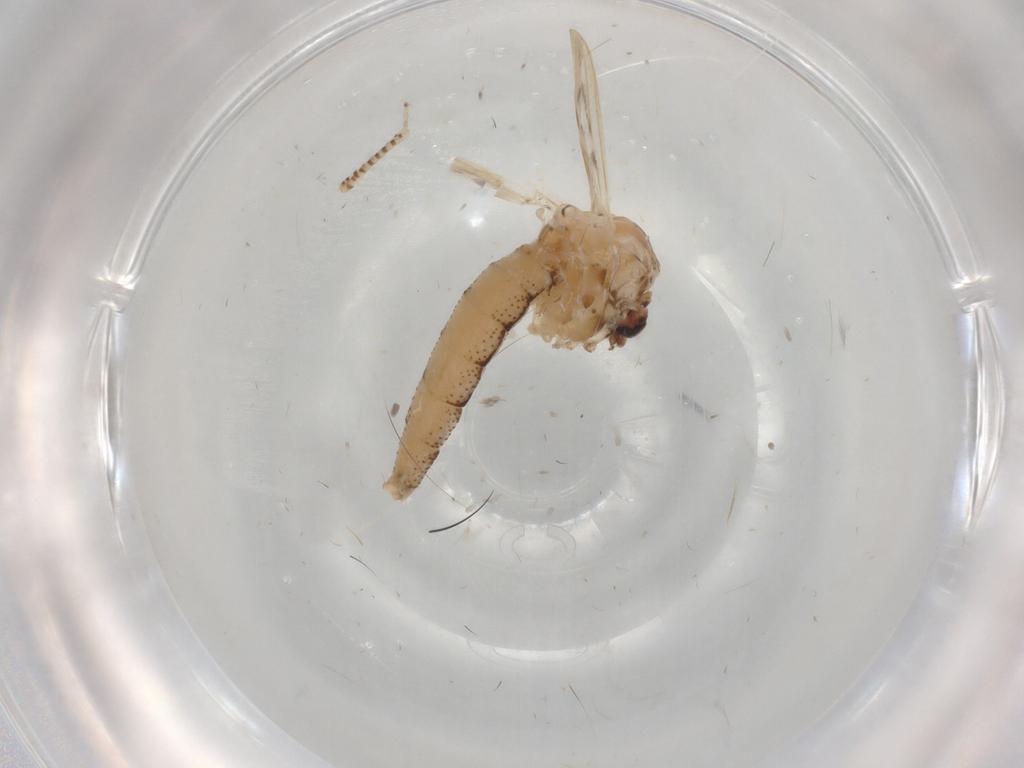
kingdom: Animalia
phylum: Arthropoda
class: Insecta
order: Diptera
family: Chaoboridae
